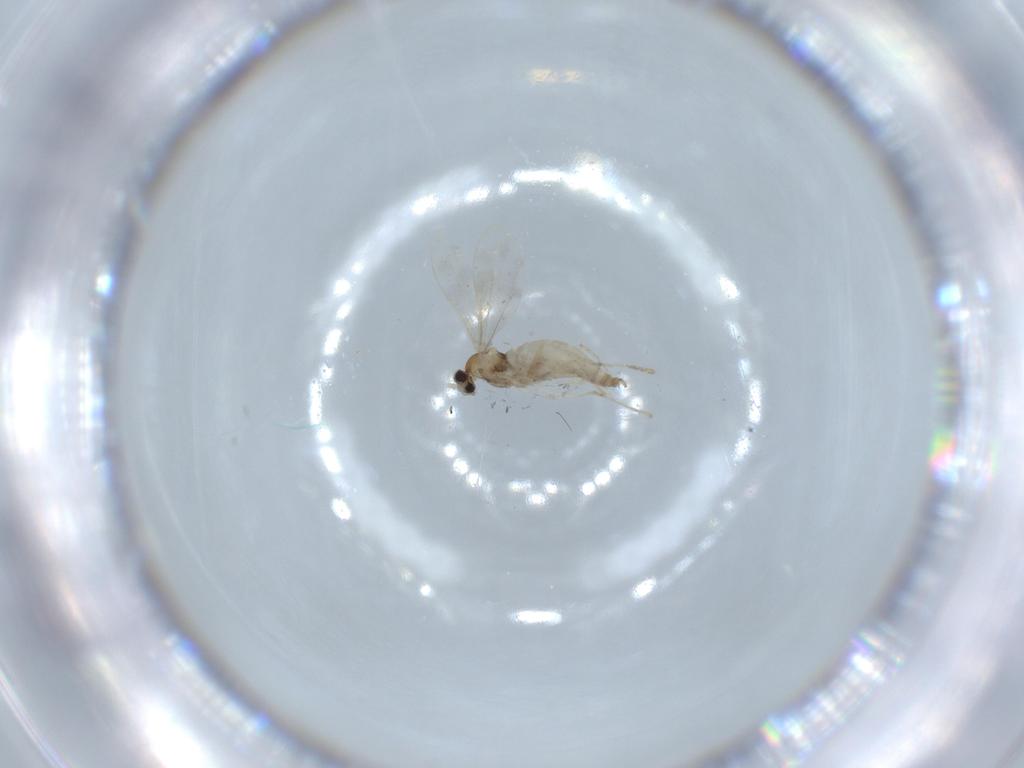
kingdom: Animalia
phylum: Arthropoda
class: Insecta
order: Diptera
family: Cecidomyiidae
